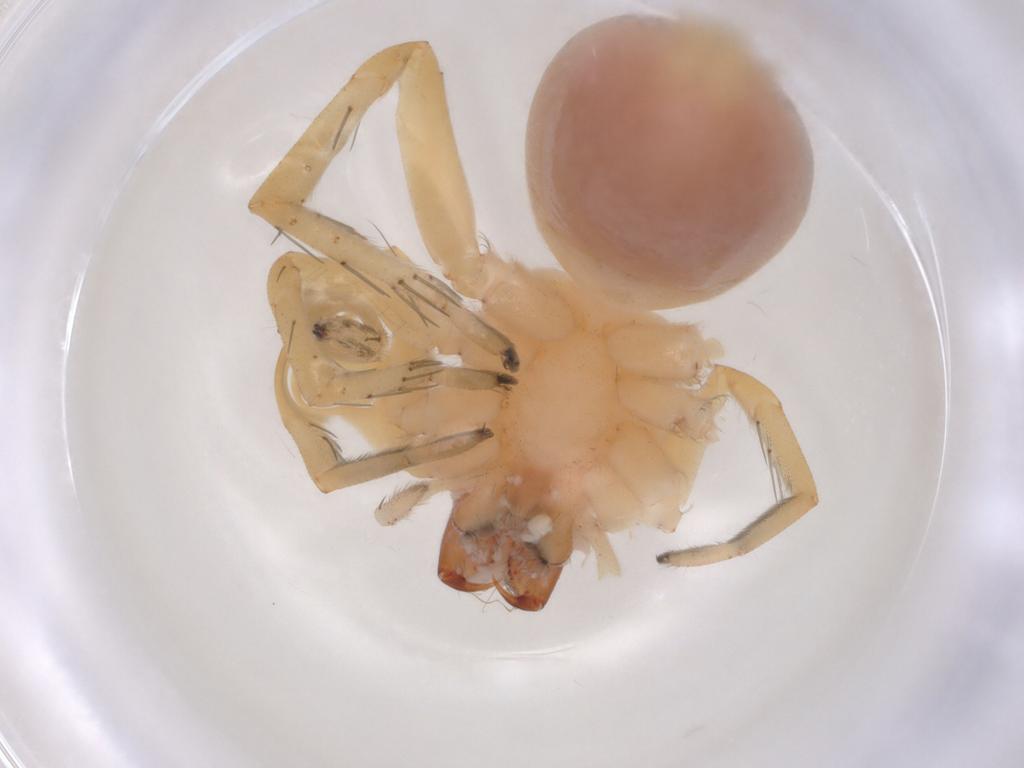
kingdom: Animalia
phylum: Arthropoda
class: Arachnida
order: Araneae
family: Clubionidae
